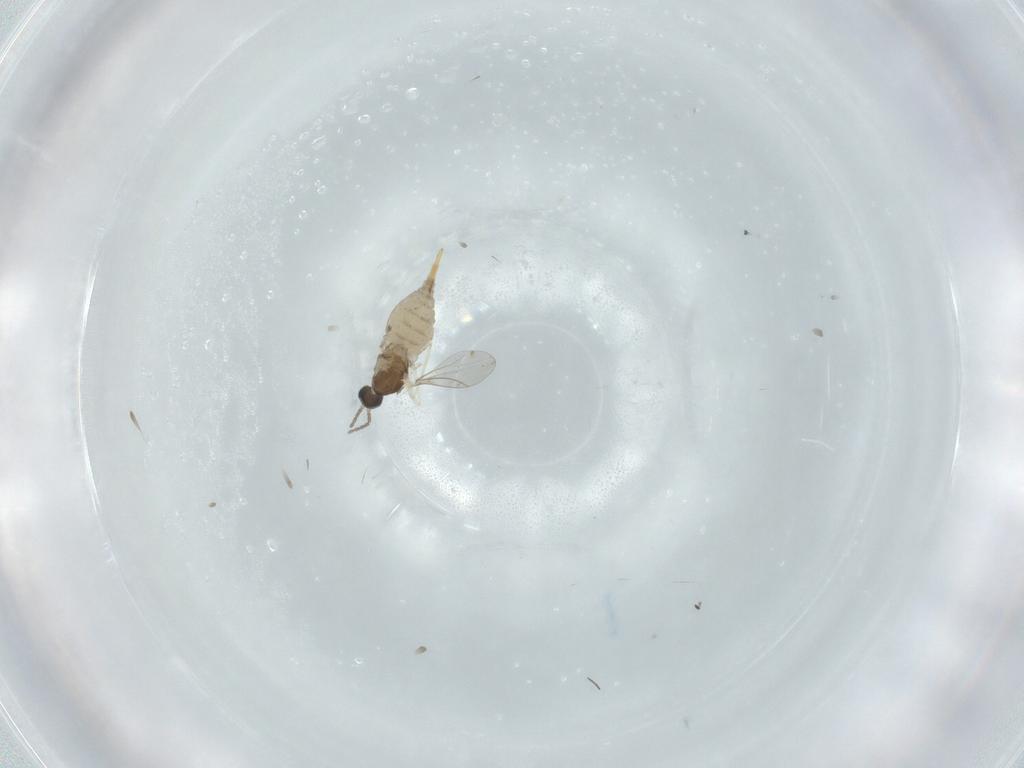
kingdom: Animalia
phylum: Arthropoda
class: Insecta
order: Diptera
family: Cecidomyiidae
